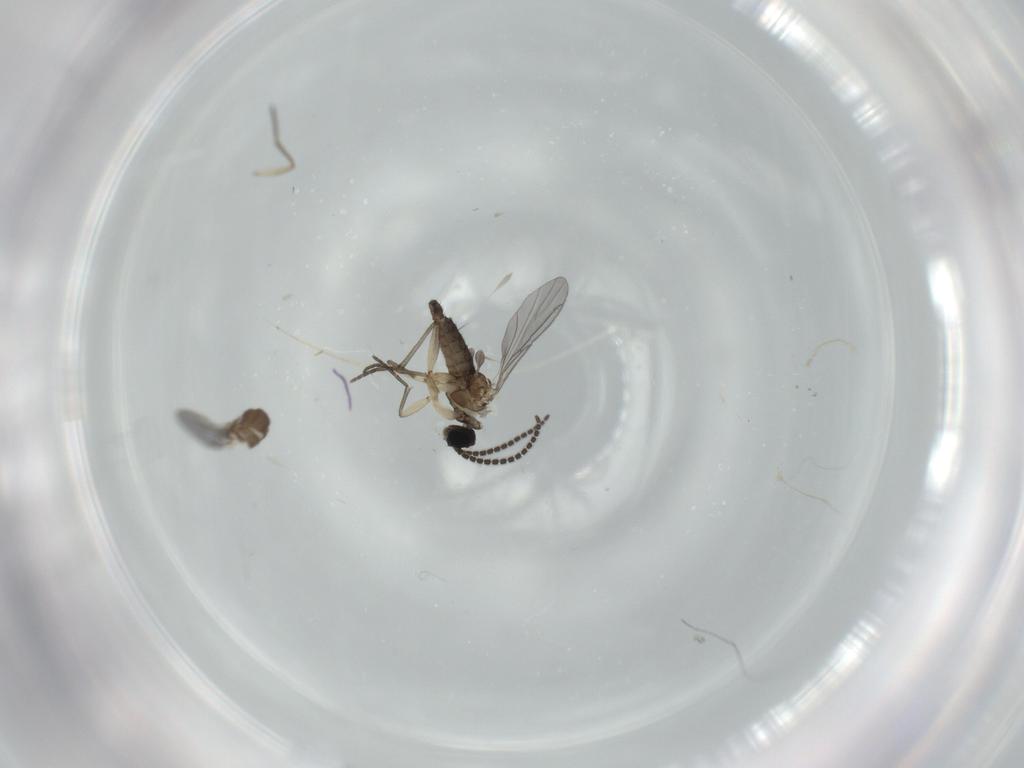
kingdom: Animalia
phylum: Arthropoda
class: Insecta
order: Diptera
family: Sciaridae
